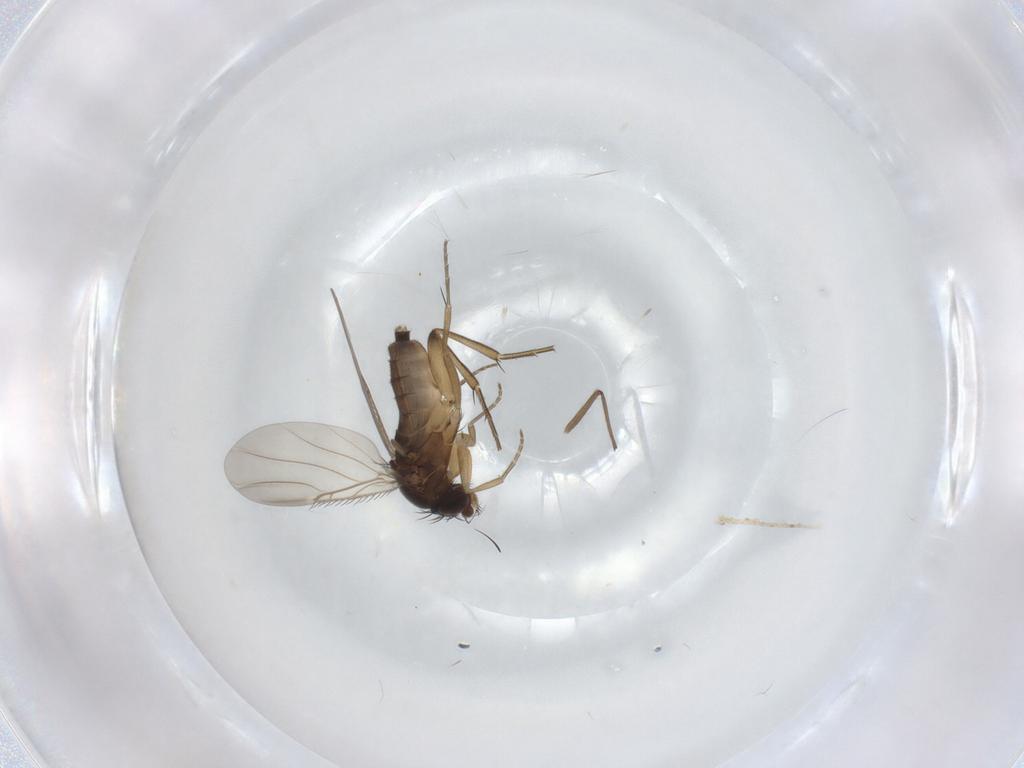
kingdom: Animalia
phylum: Arthropoda
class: Insecta
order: Diptera
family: Phoridae
